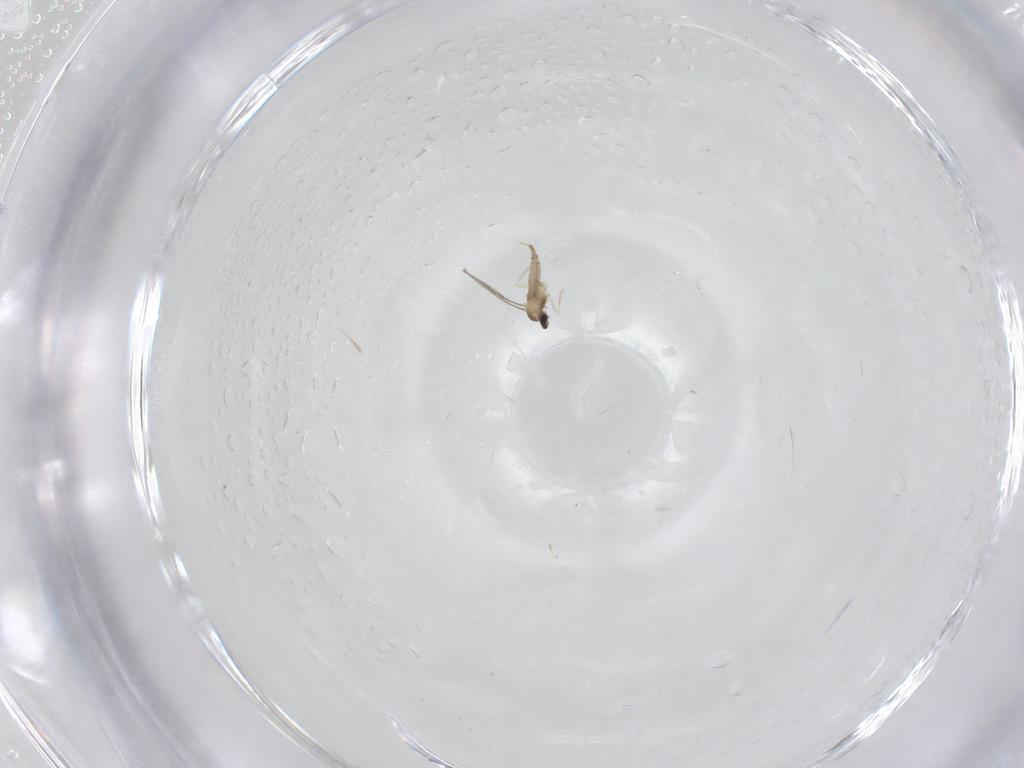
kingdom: Animalia
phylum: Arthropoda
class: Insecta
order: Diptera
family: Cecidomyiidae
